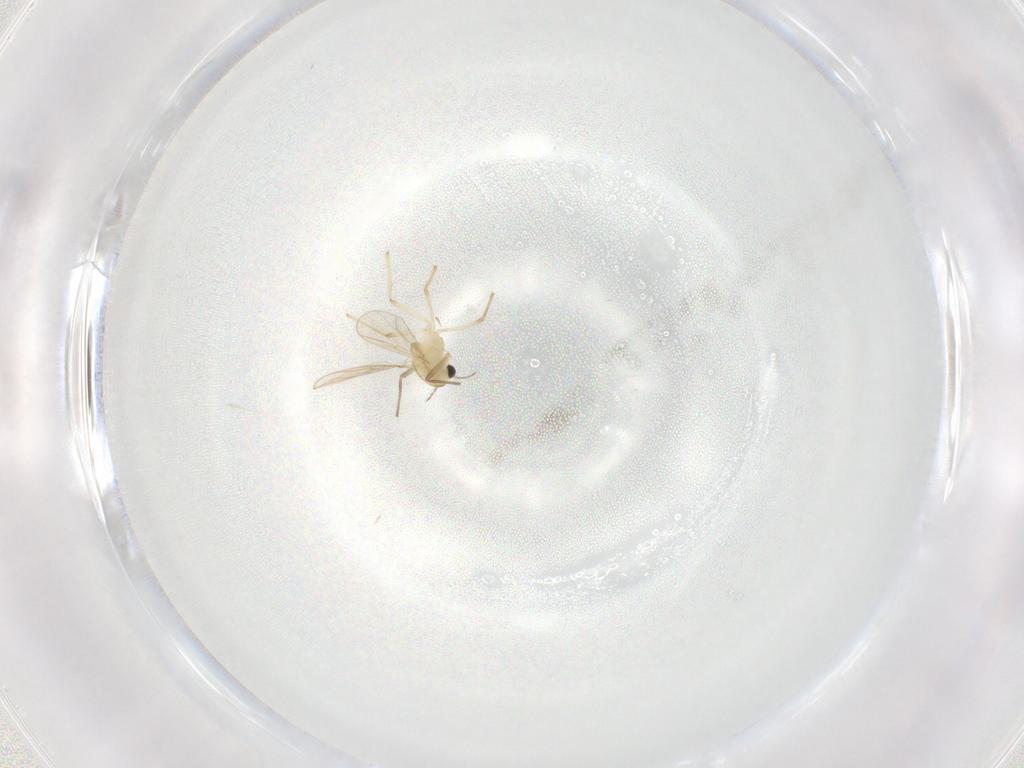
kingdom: Animalia
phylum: Arthropoda
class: Insecta
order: Diptera
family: Chironomidae
